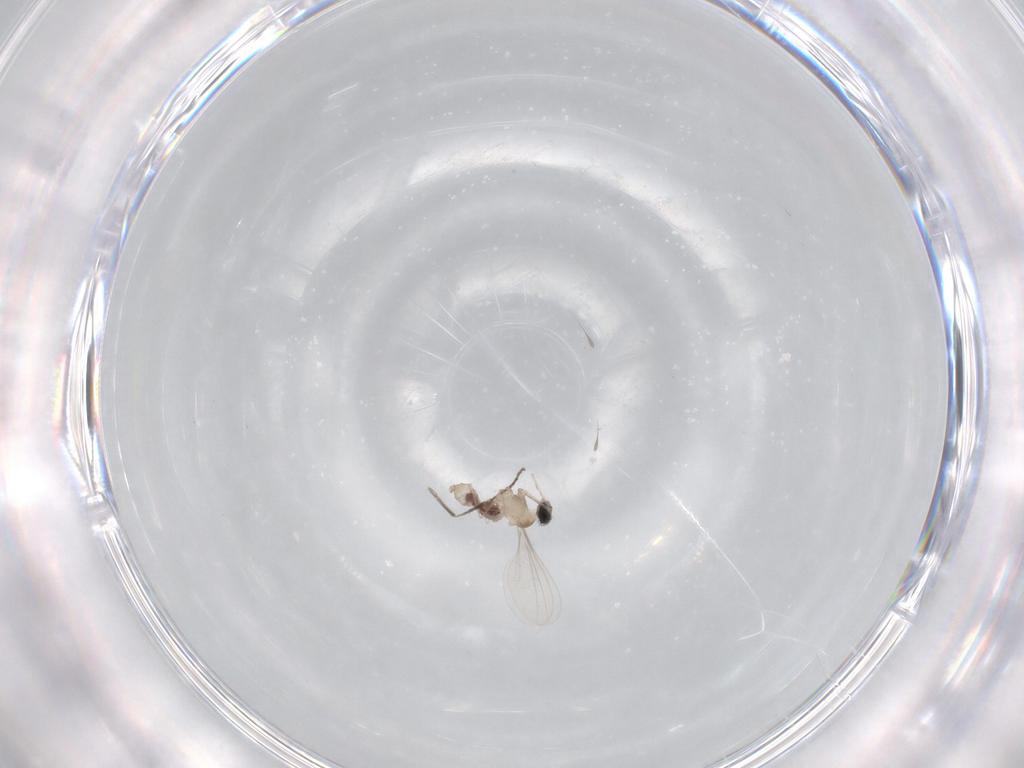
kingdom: Animalia
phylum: Arthropoda
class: Insecta
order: Diptera
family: Cecidomyiidae
